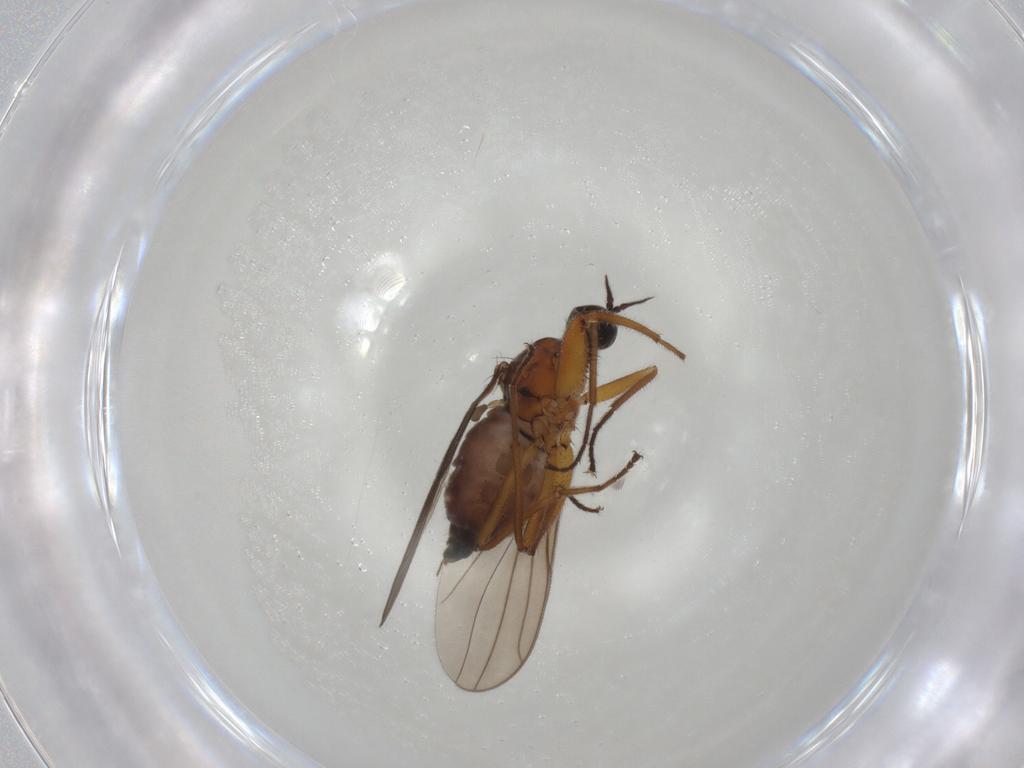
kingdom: Animalia
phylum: Arthropoda
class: Insecta
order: Diptera
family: Hybotidae
